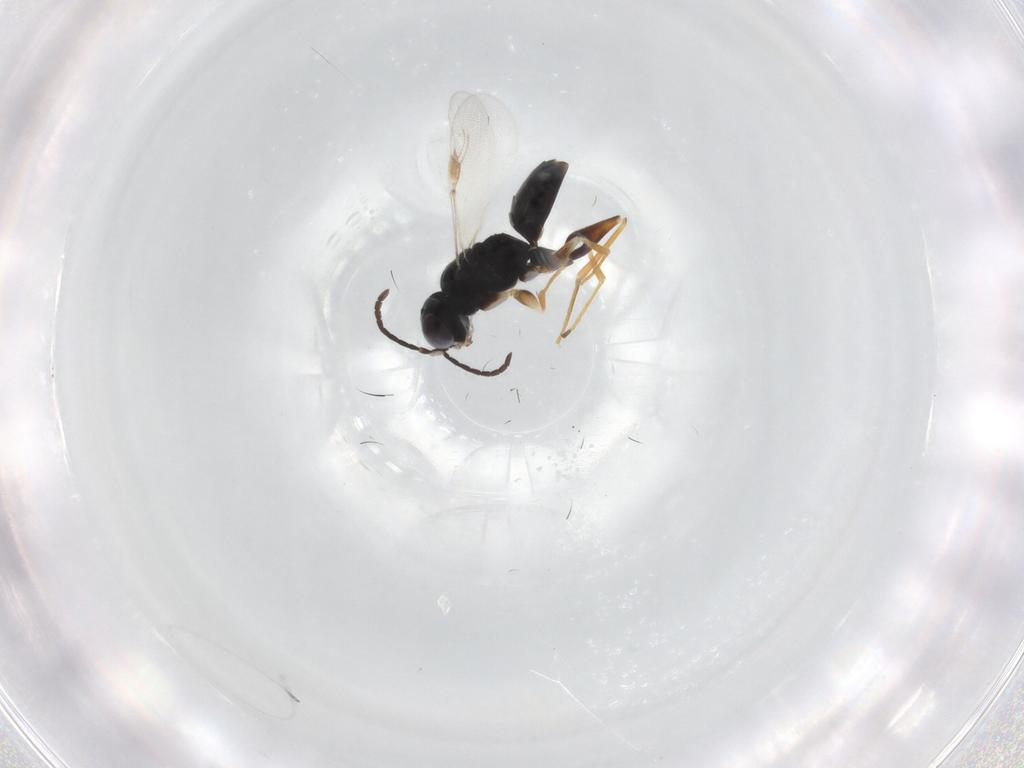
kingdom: Animalia
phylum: Arthropoda
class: Insecta
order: Hymenoptera
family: Dryinidae
